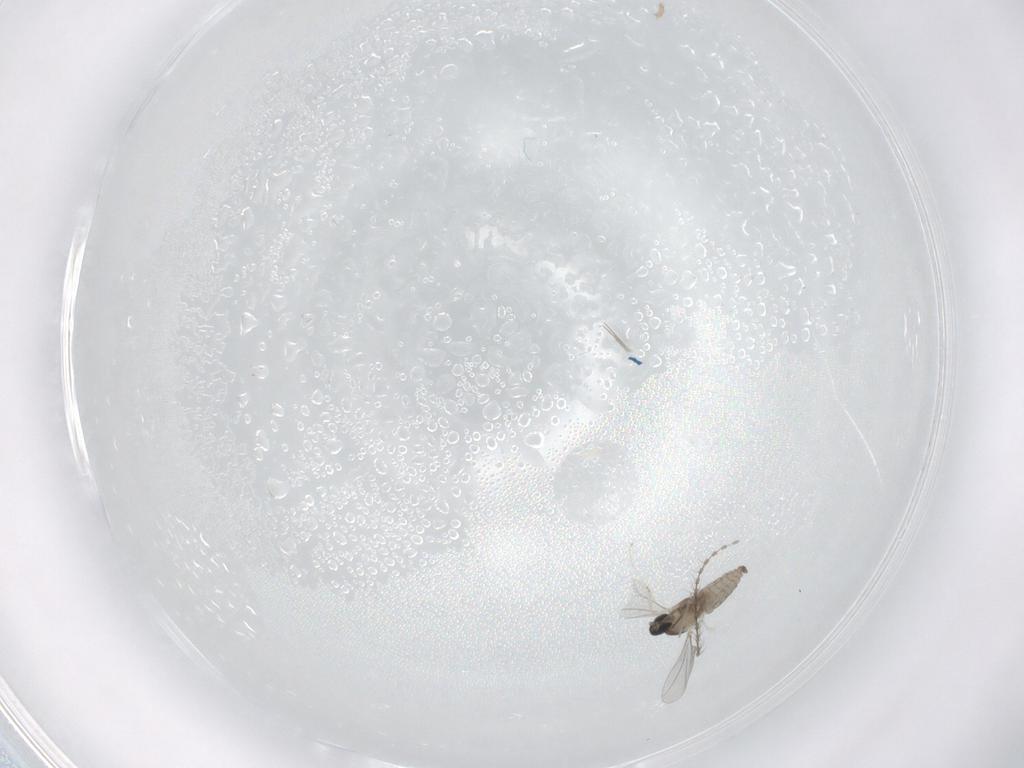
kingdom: Animalia
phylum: Arthropoda
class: Insecta
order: Diptera
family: Cecidomyiidae
